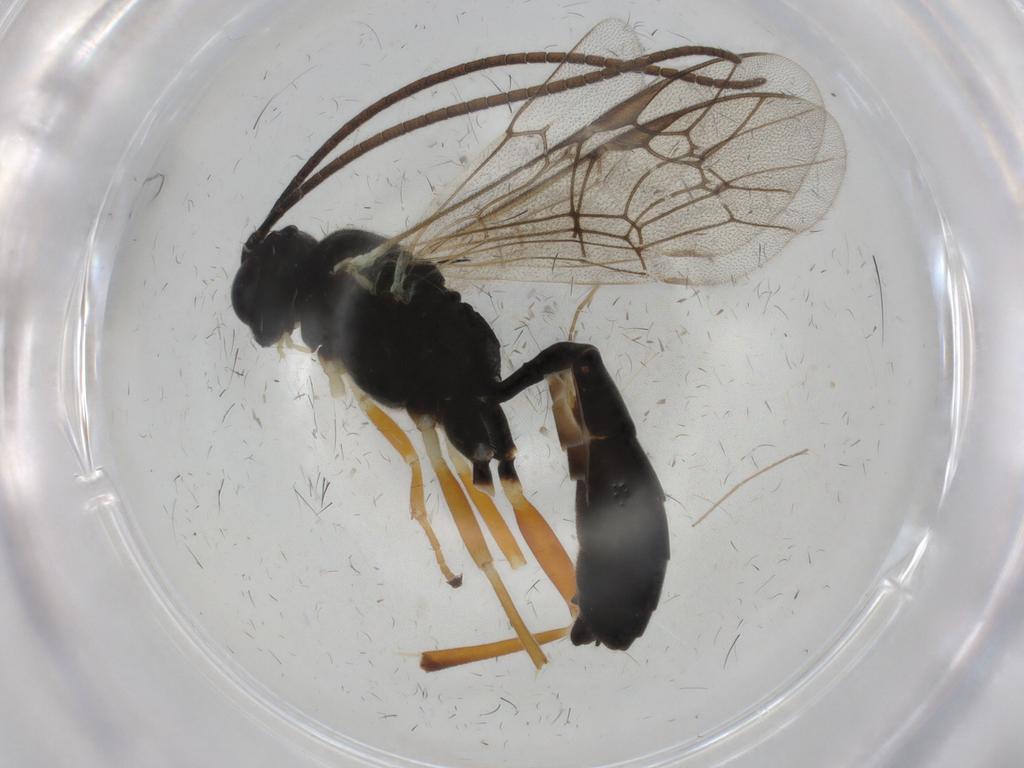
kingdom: Animalia
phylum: Arthropoda
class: Insecta
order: Hymenoptera
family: Ichneumonidae
